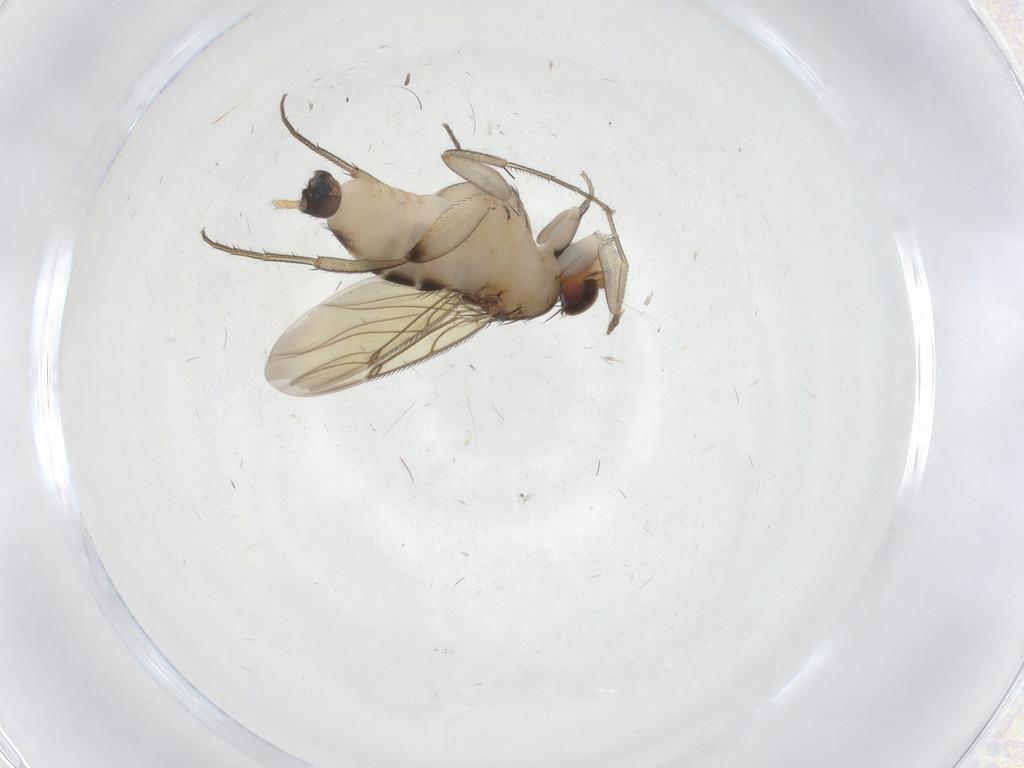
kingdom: Animalia
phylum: Arthropoda
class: Insecta
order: Diptera
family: Phoridae
